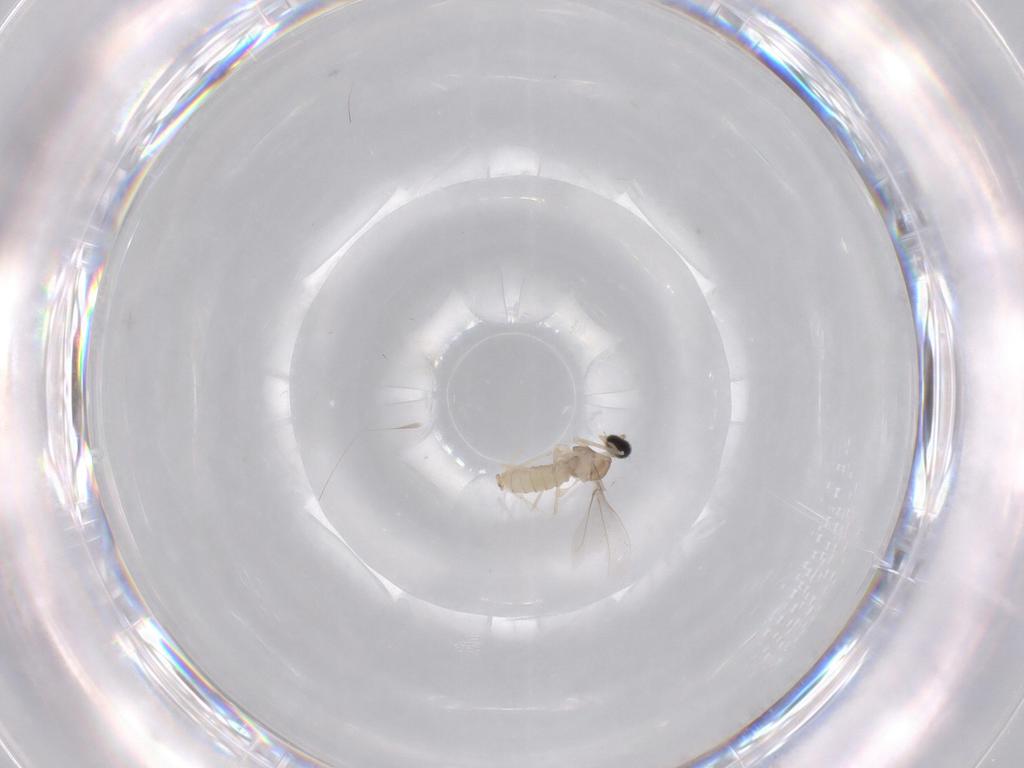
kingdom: Animalia
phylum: Arthropoda
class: Insecta
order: Diptera
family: Cecidomyiidae
